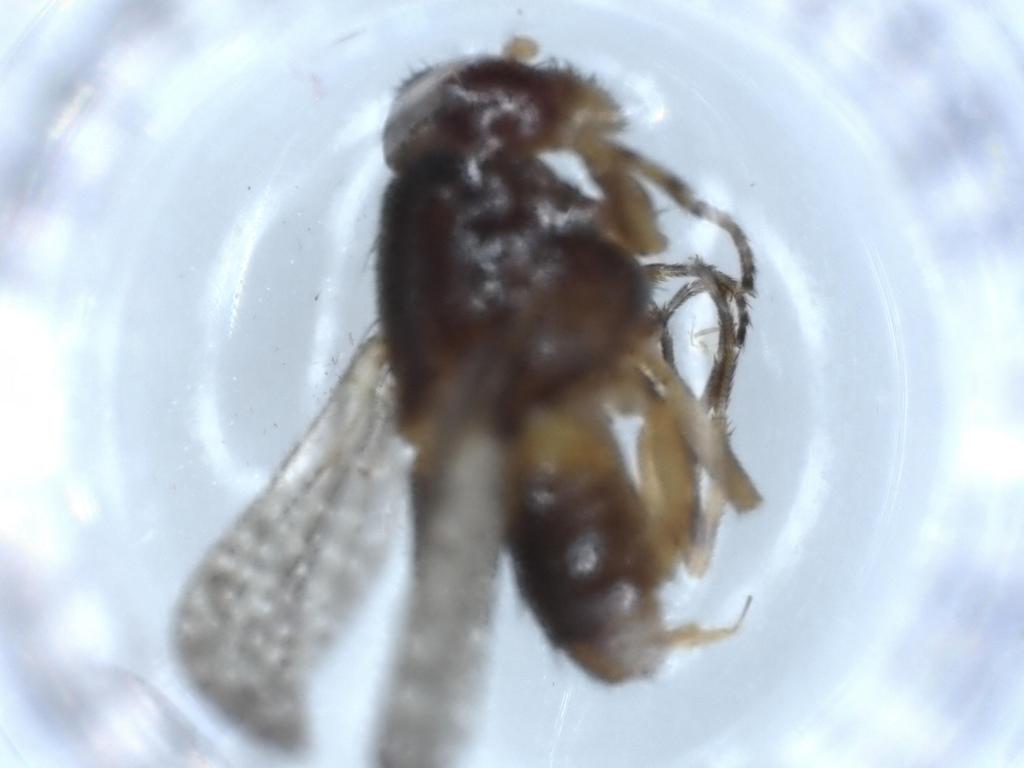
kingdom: Animalia
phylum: Arthropoda
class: Insecta
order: Diptera
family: Odiniidae
